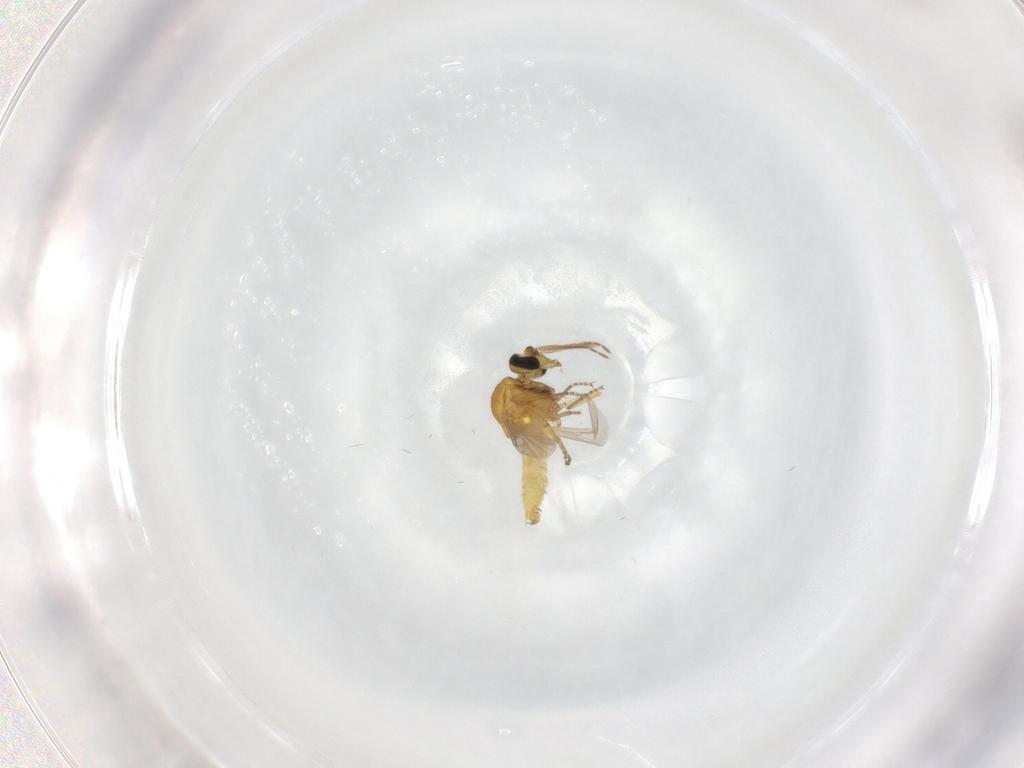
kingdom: Animalia
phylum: Arthropoda
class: Insecta
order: Diptera
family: Ceratopogonidae
